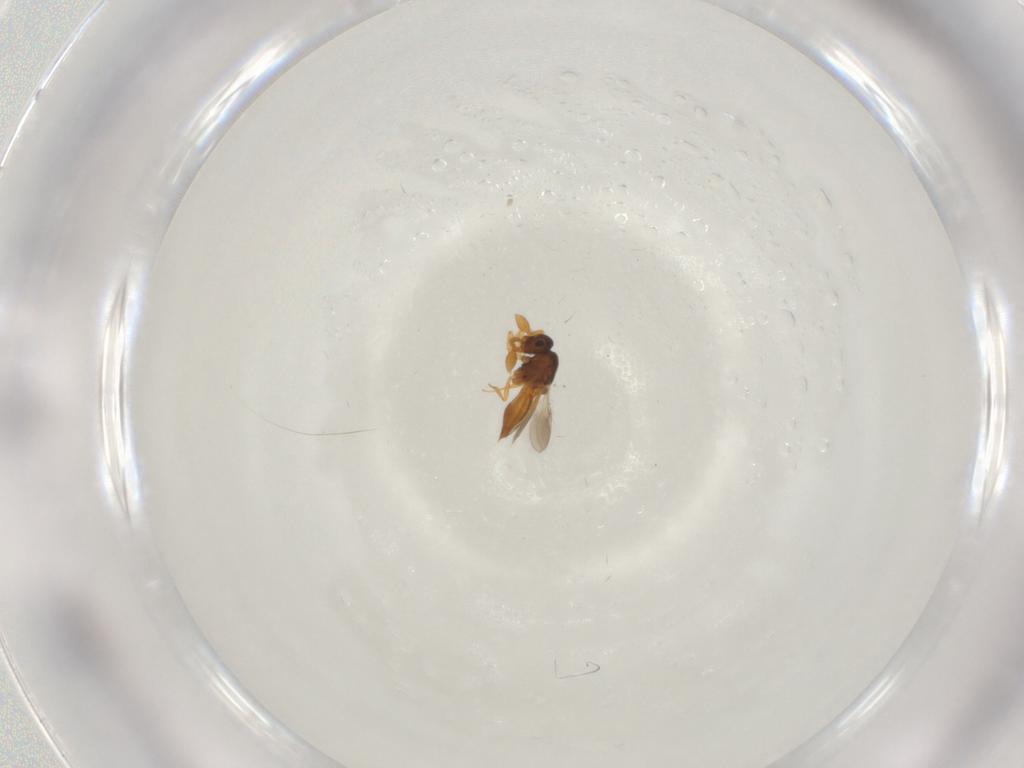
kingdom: Animalia
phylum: Arthropoda
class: Insecta
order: Hymenoptera
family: Scelionidae
